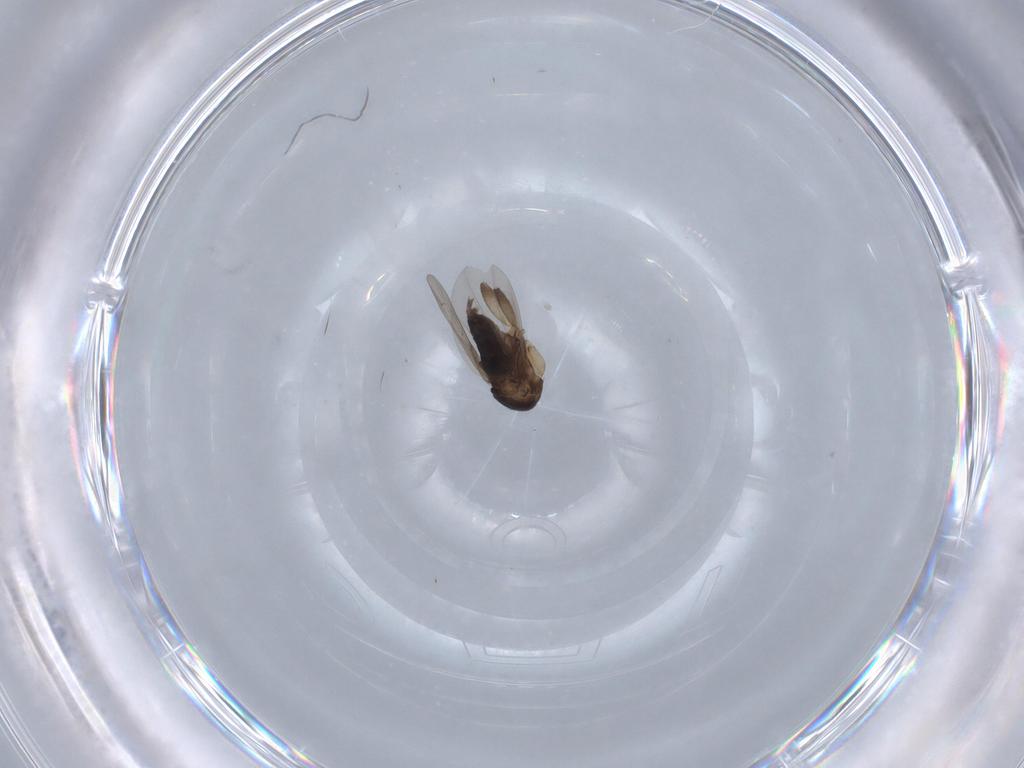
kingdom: Animalia
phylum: Arthropoda
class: Insecta
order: Diptera
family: Phoridae
